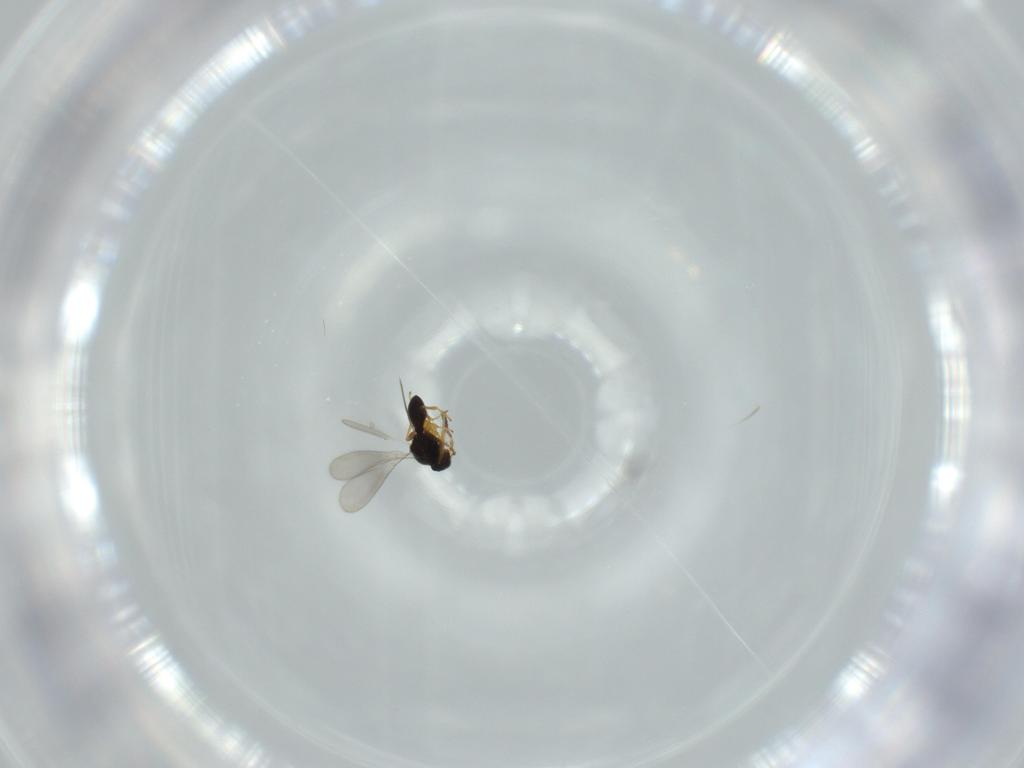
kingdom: Animalia
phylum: Arthropoda
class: Insecta
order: Hymenoptera
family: Platygastridae
